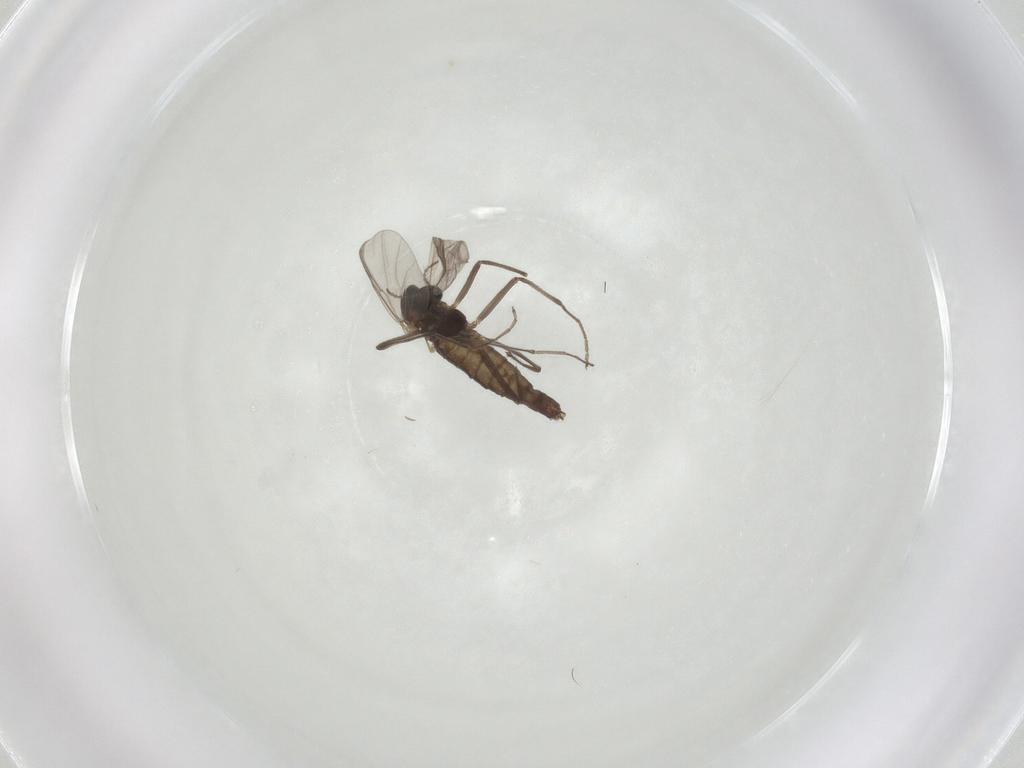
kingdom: Animalia
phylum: Arthropoda
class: Insecta
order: Diptera
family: Chironomidae
